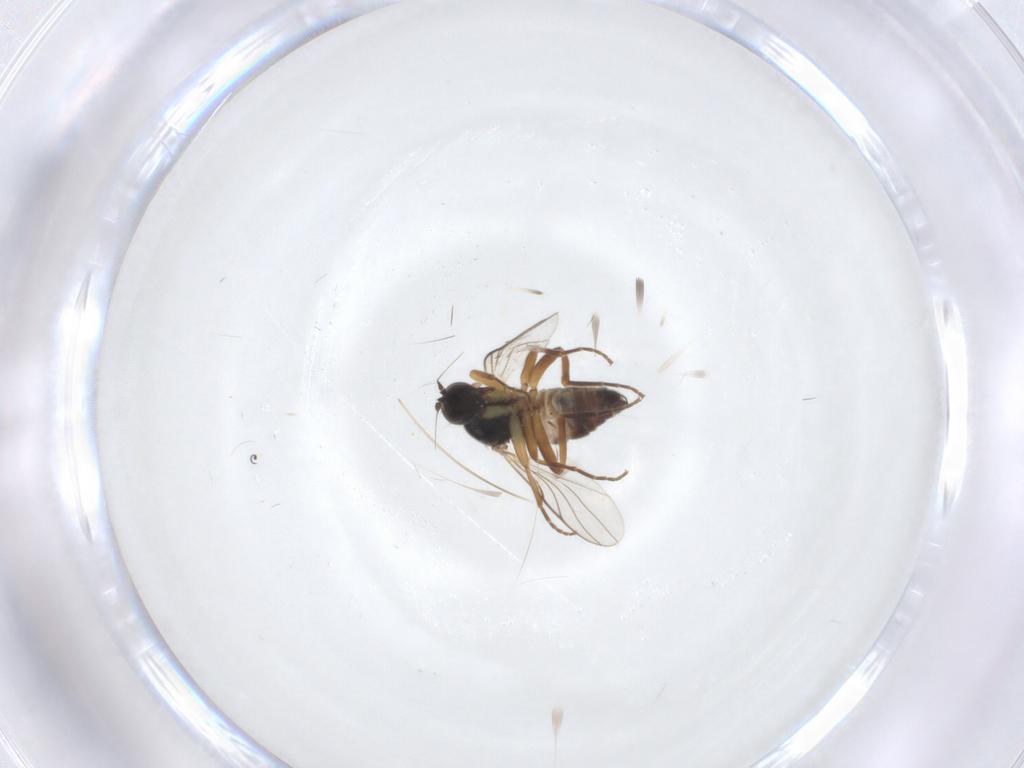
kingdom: Animalia
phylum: Arthropoda
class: Insecta
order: Diptera
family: Hybotidae
